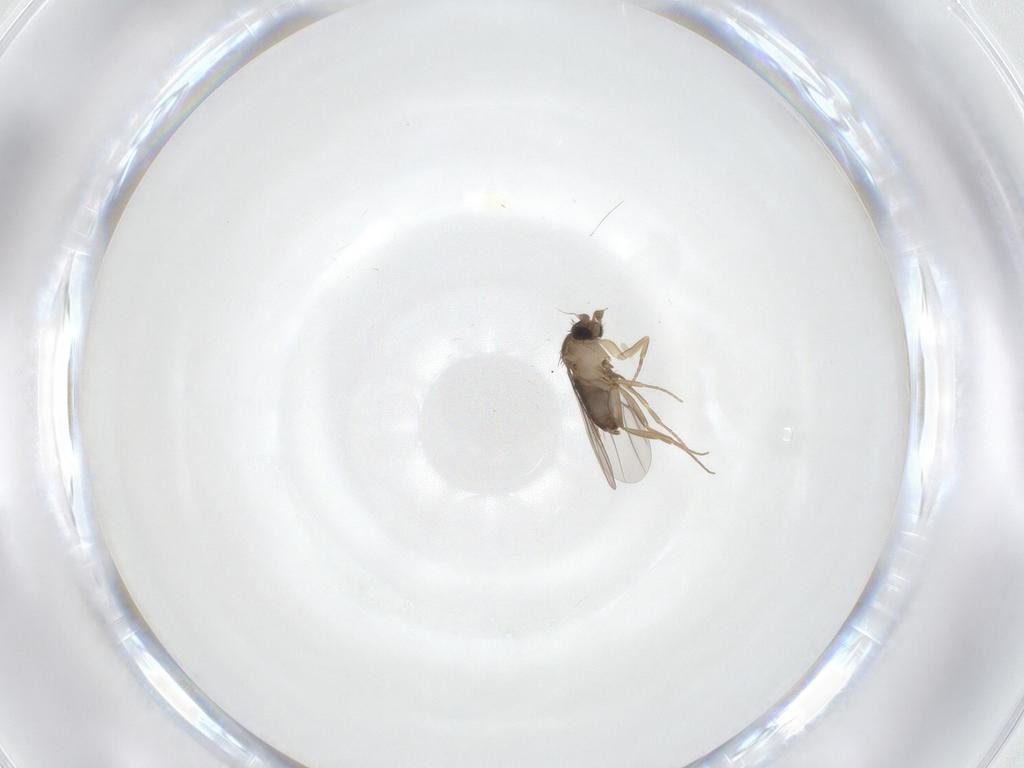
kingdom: Animalia
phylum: Arthropoda
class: Insecta
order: Diptera
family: Phoridae
